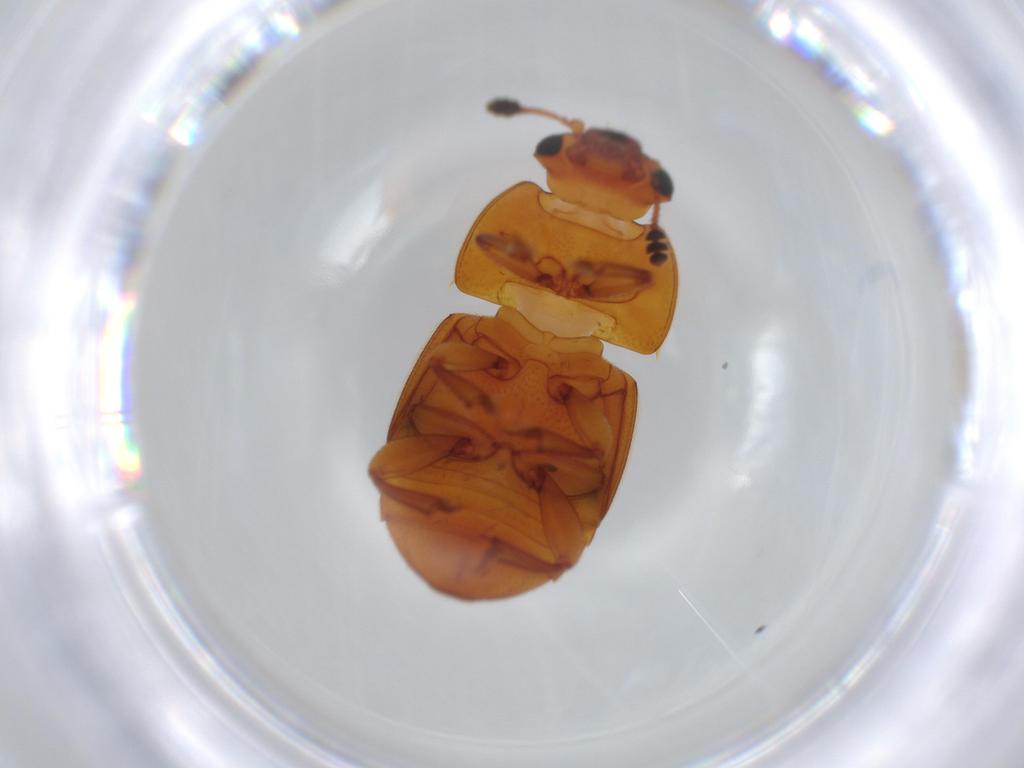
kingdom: Animalia
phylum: Arthropoda
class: Insecta
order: Coleoptera
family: Nitidulidae
